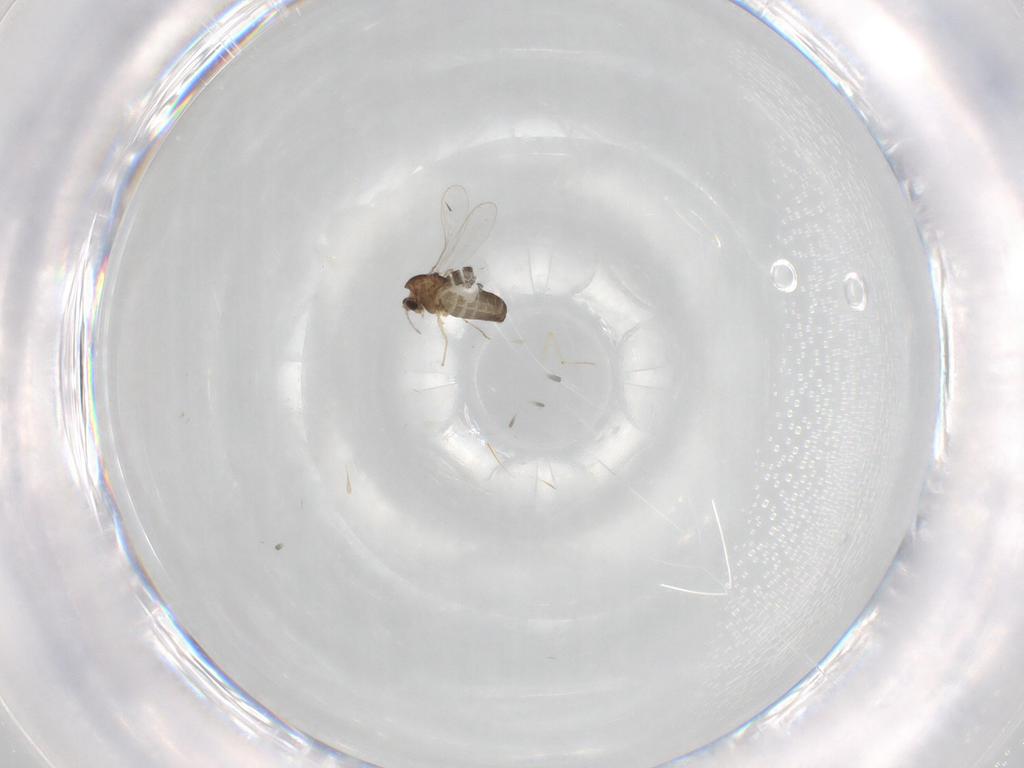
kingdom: Animalia
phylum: Arthropoda
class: Insecta
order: Diptera
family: Chironomidae
